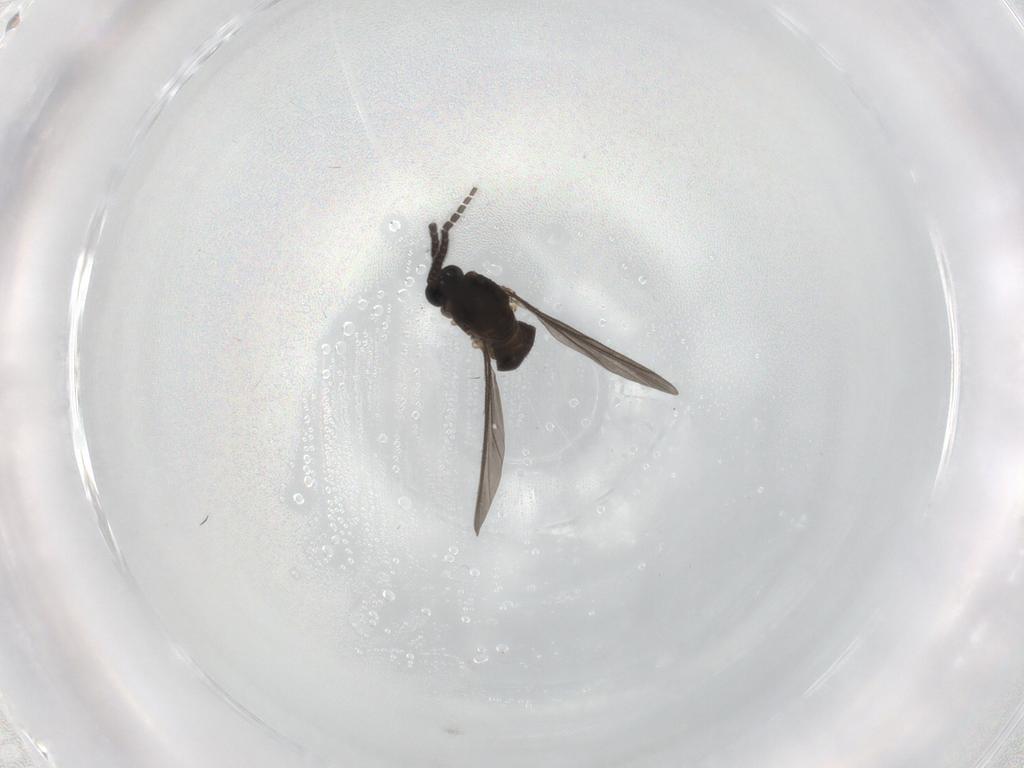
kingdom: Animalia
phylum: Arthropoda
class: Insecta
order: Diptera
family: Sciaridae
